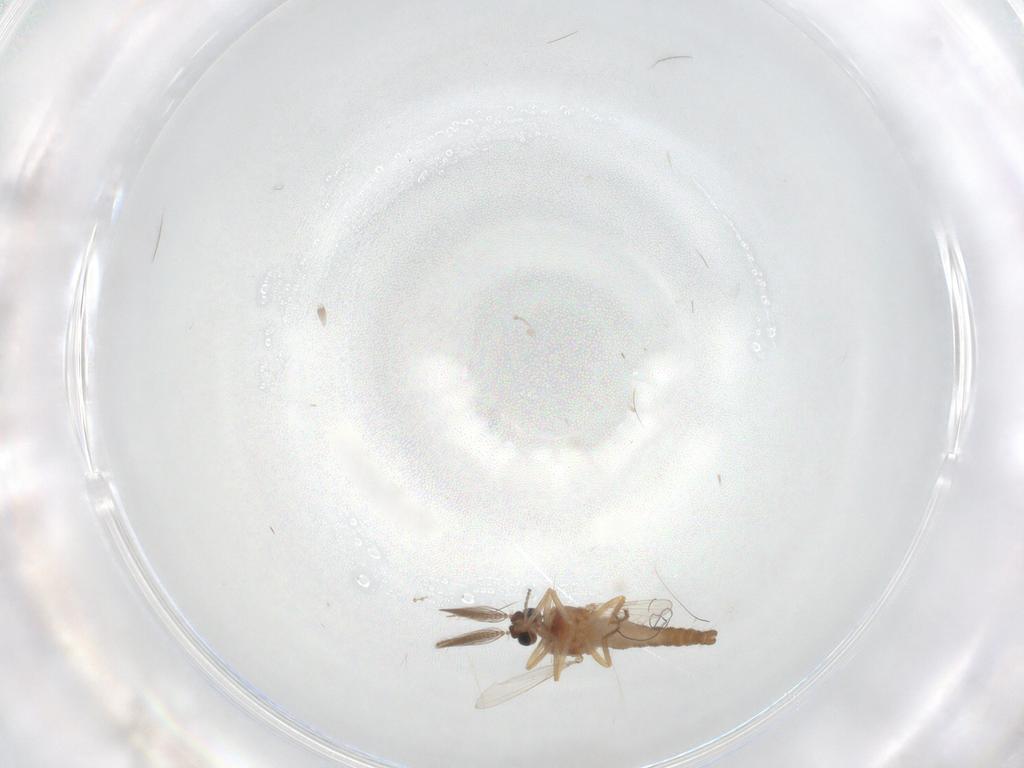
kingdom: Animalia
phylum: Arthropoda
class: Insecta
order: Diptera
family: Ceratopogonidae
